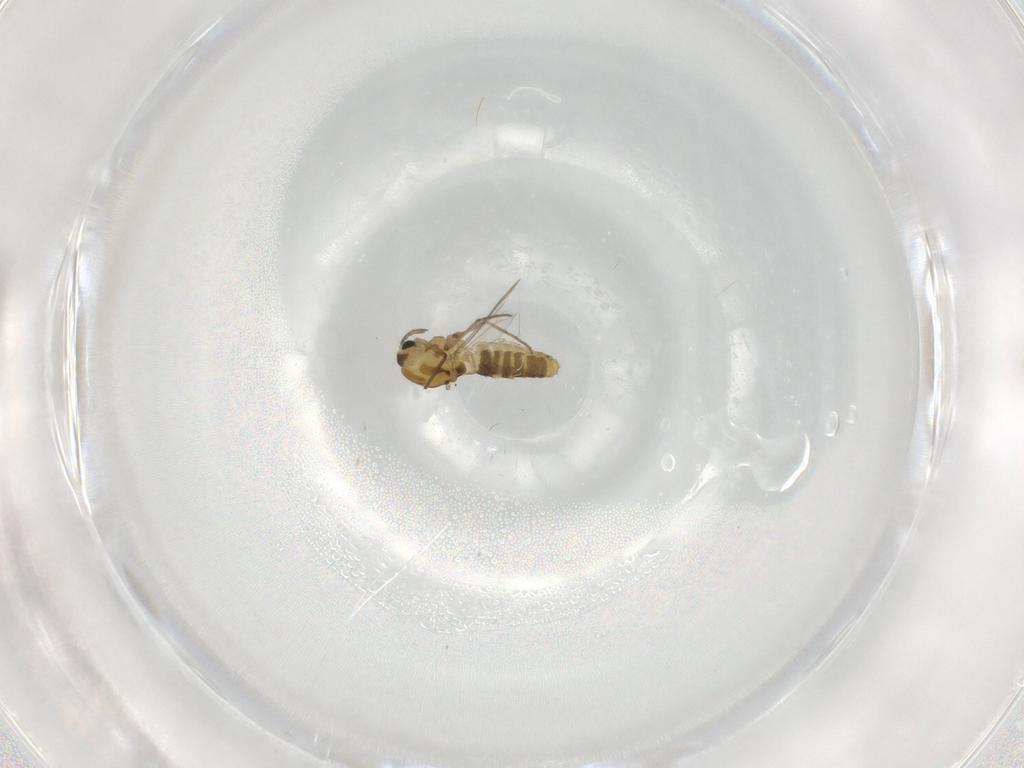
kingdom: Animalia
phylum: Arthropoda
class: Insecta
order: Diptera
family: Chironomidae
